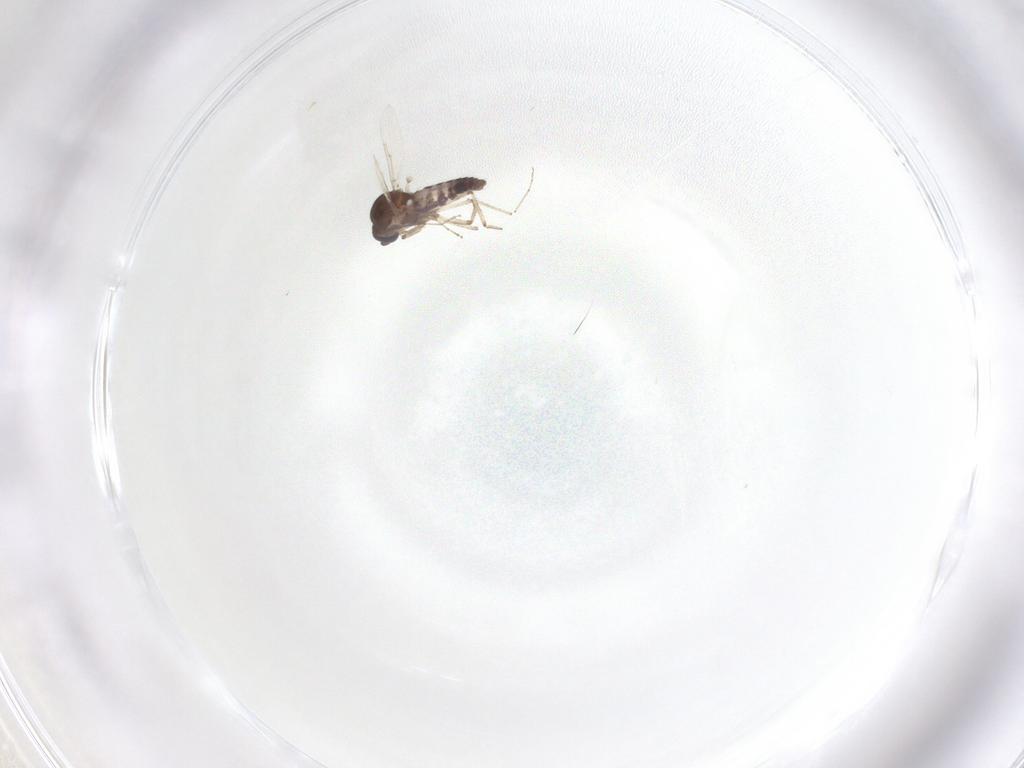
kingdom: Animalia
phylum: Arthropoda
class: Insecta
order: Diptera
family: Ceratopogonidae
